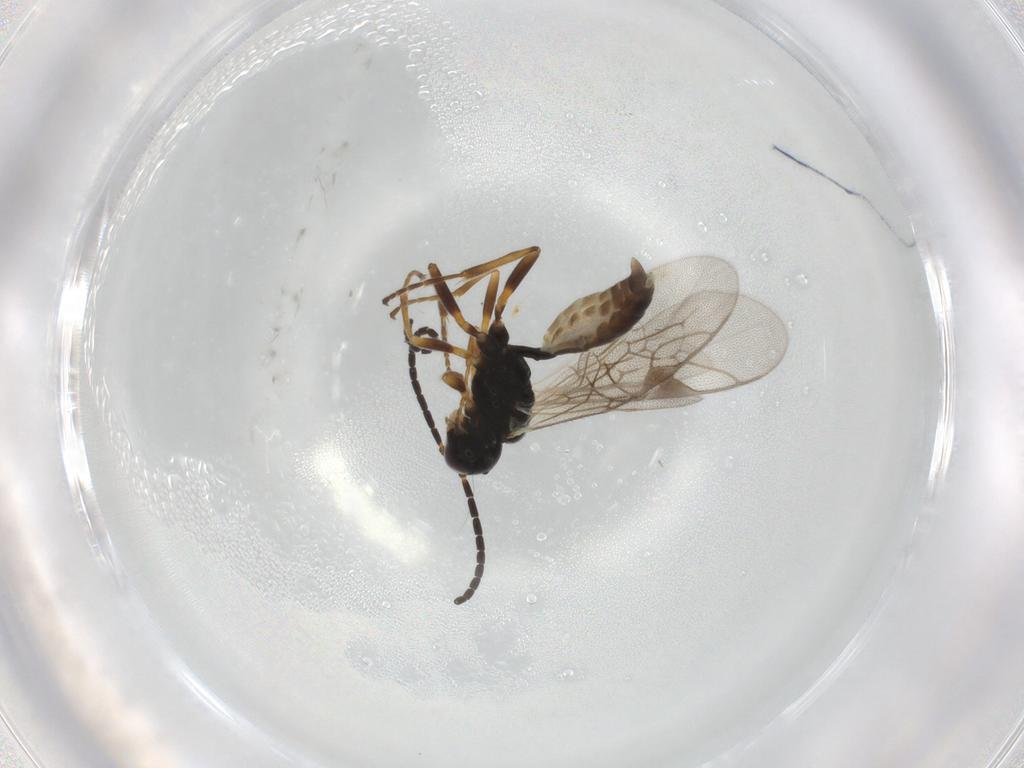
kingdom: Animalia
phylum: Arthropoda
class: Insecta
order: Hymenoptera
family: Ichneumonidae
